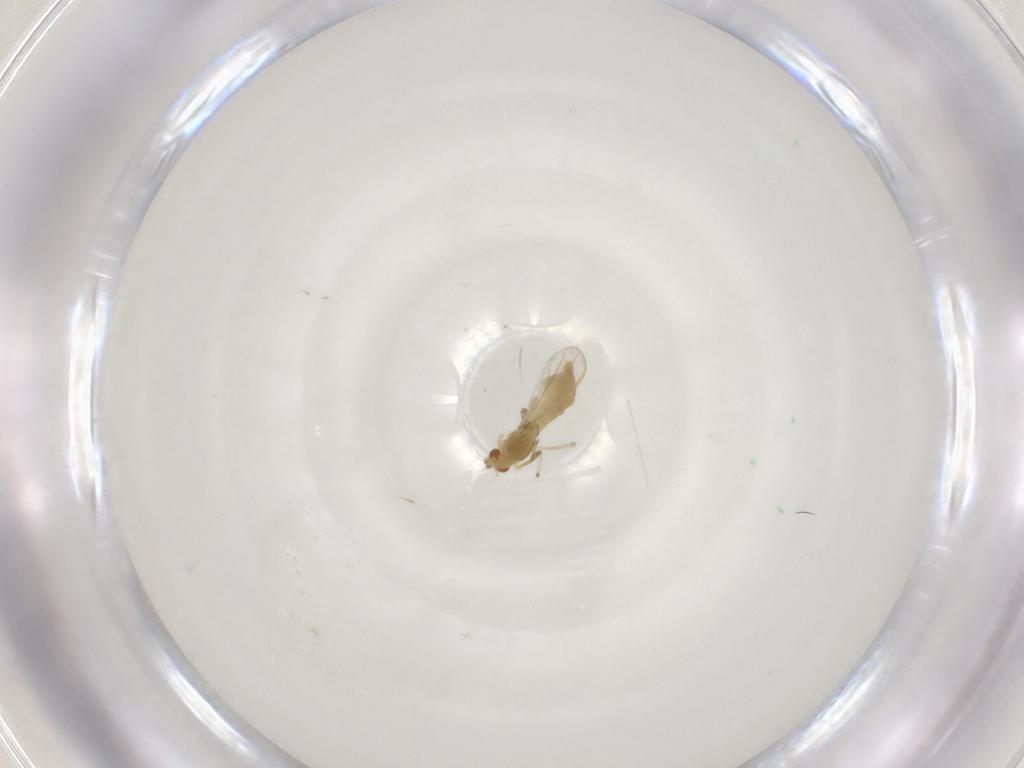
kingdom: Animalia
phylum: Arthropoda
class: Insecta
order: Diptera
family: Chironomidae
